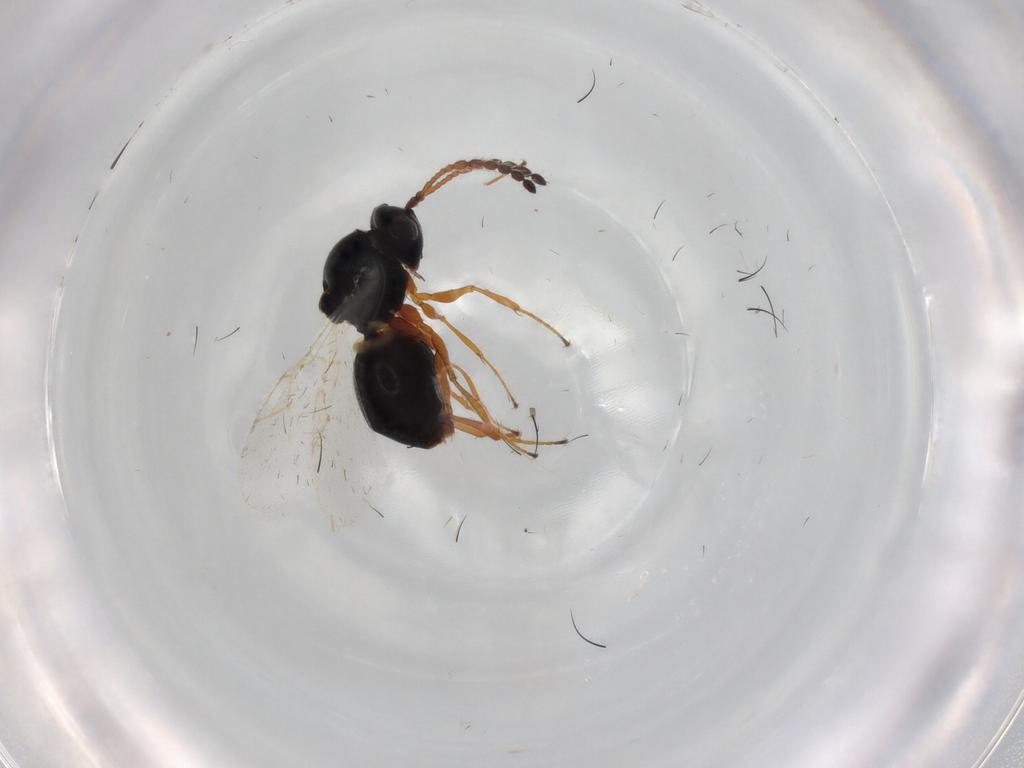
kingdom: Animalia
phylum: Arthropoda
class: Insecta
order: Hymenoptera
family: Figitidae
